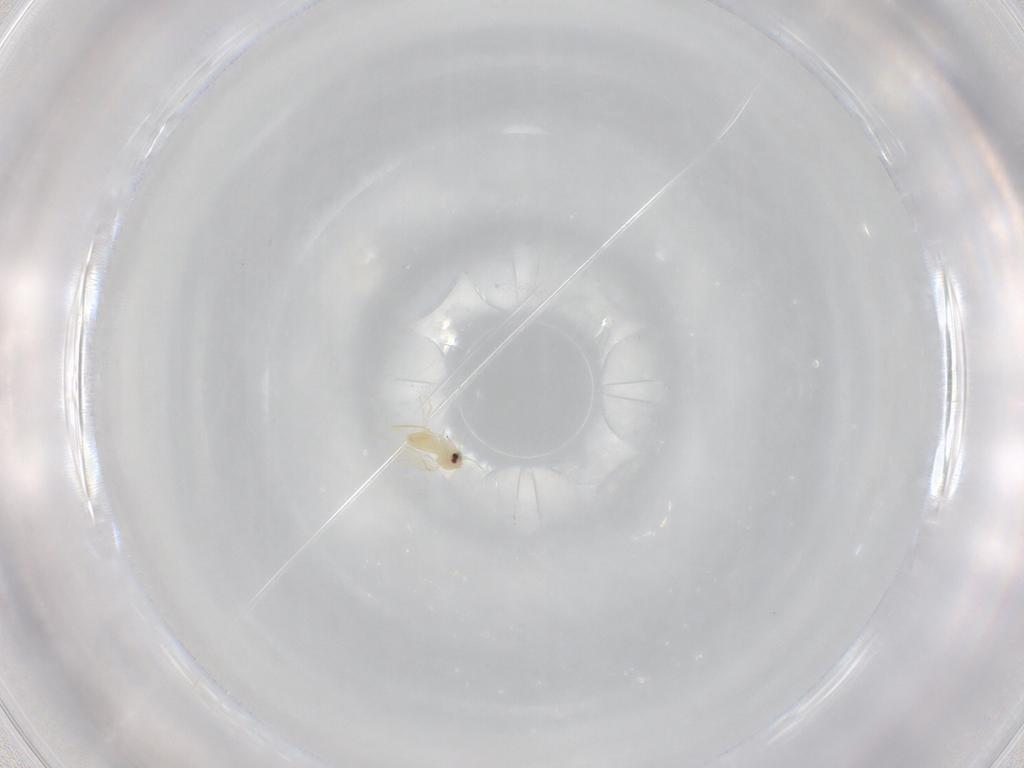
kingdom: Animalia
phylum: Arthropoda
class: Insecta
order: Hemiptera
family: Aleyrodidae
